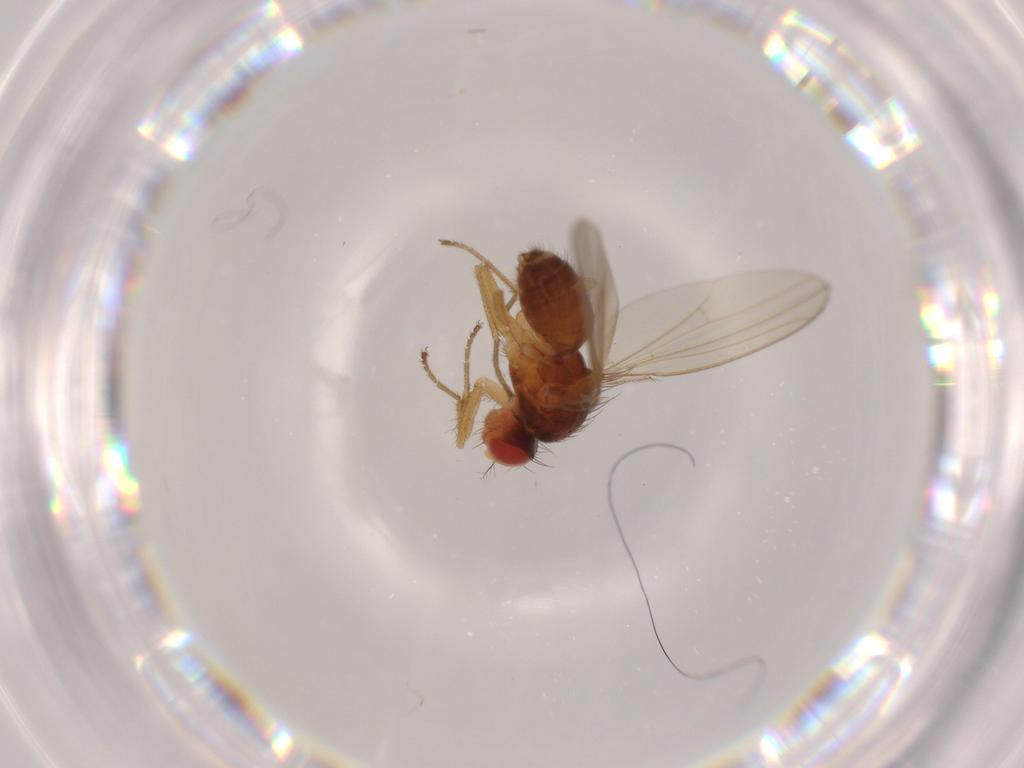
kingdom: Animalia
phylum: Arthropoda
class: Insecta
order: Diptera
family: Drosophilidae
